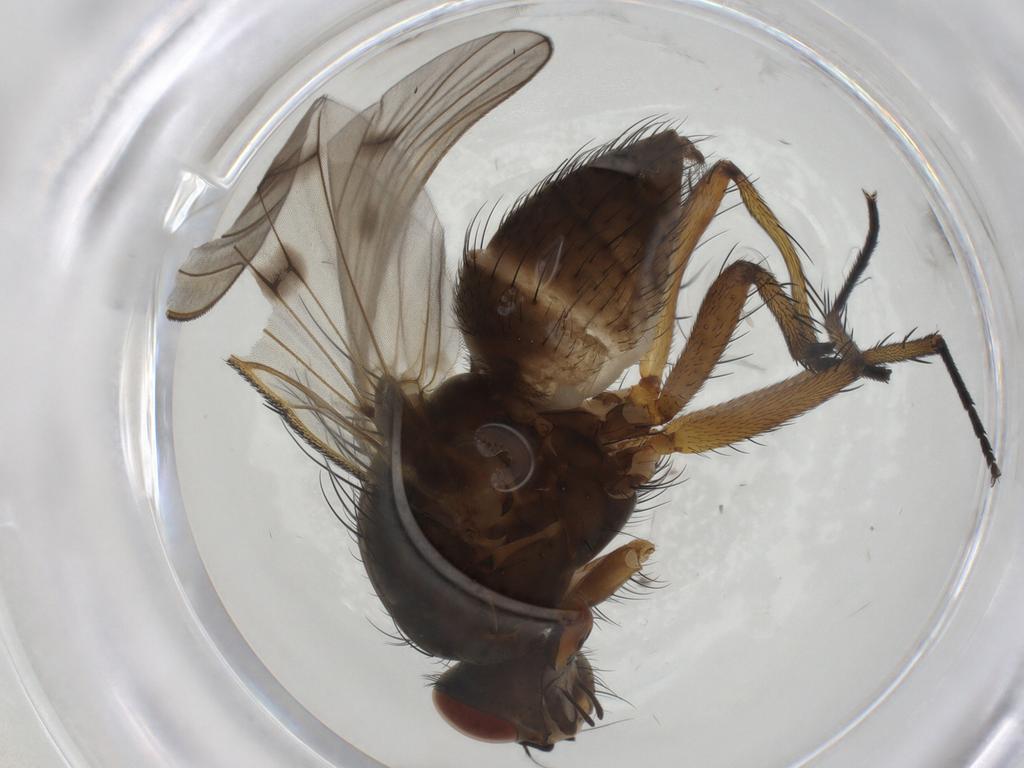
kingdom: Animalia
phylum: Arthropoda
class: Insecta
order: Diptera
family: Anthomyiidae
